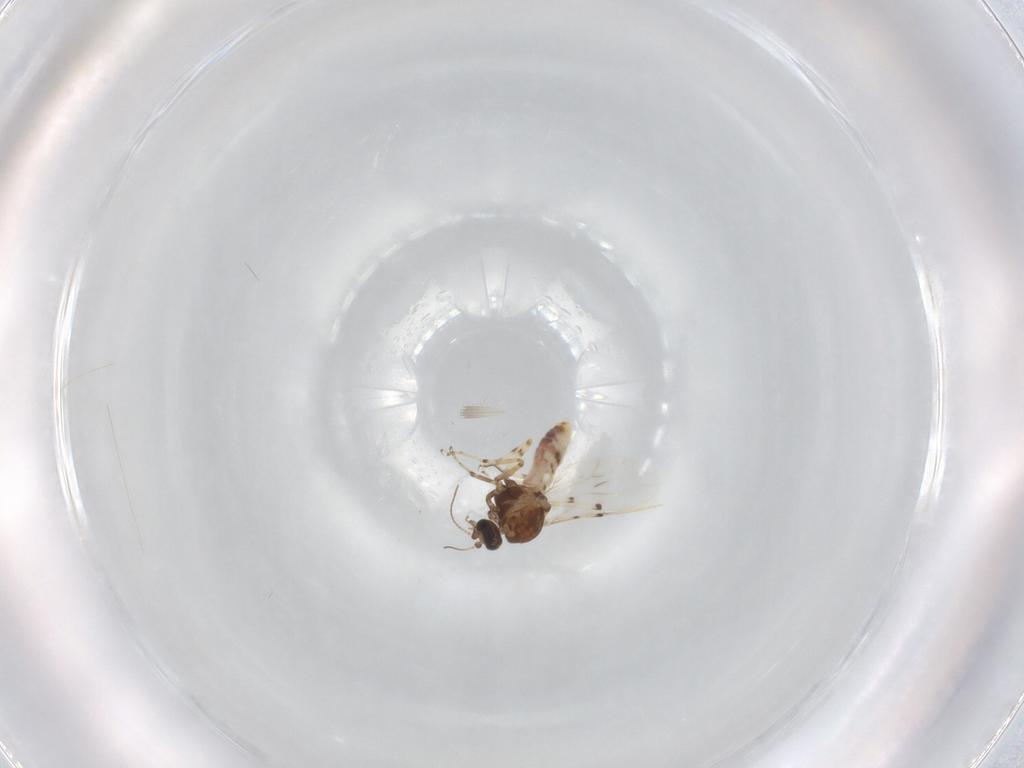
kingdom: Animalia
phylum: Arthropoda
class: Insecta
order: Diptera
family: Ceratopogonidae
